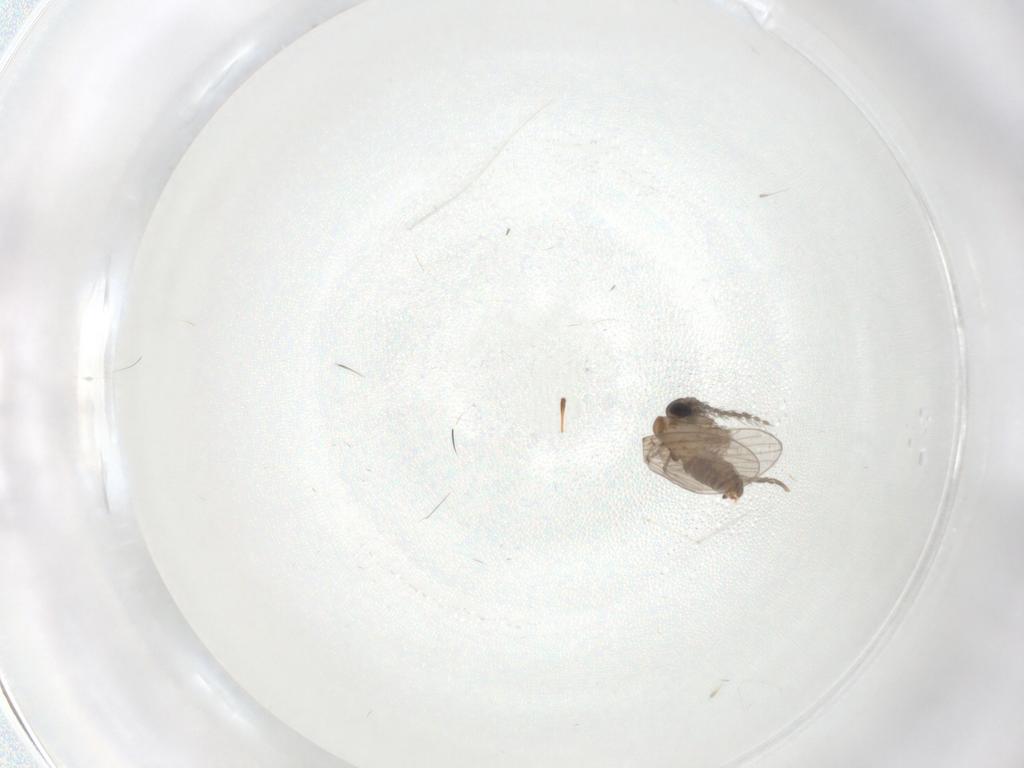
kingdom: Animalia
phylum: Arthropoda
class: Insecta
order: Diptera
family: Cecidomyiidae
